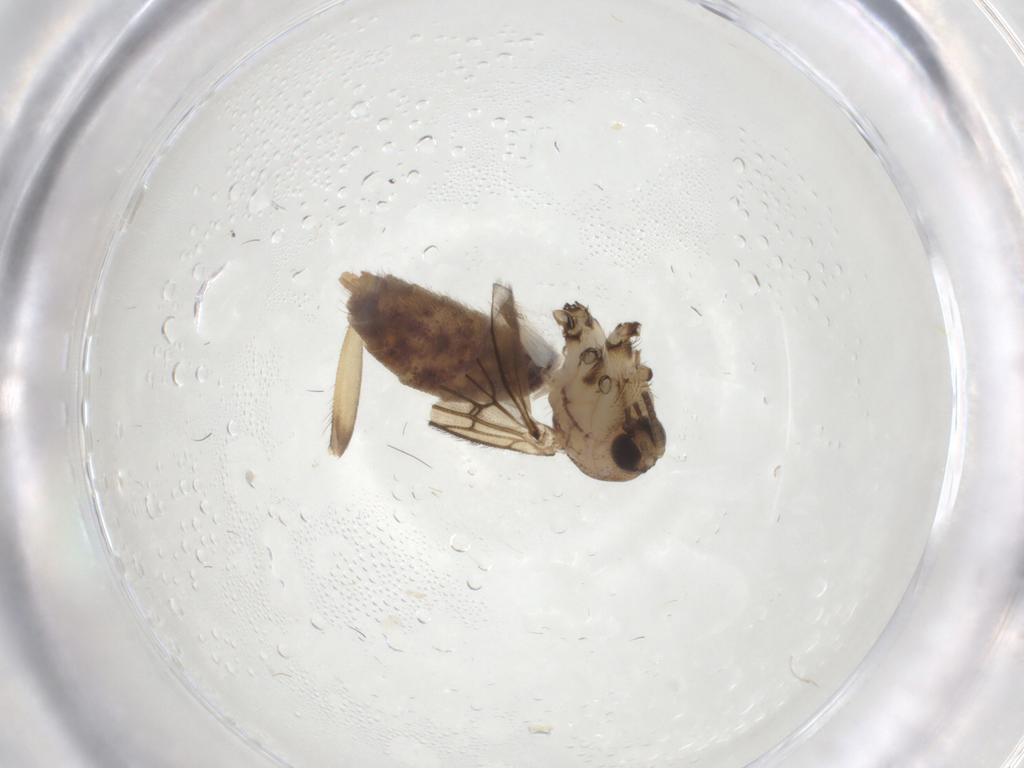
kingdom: Animalia
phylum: Arthropoda
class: Insecta
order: Diptera
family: Mycetophilidae
